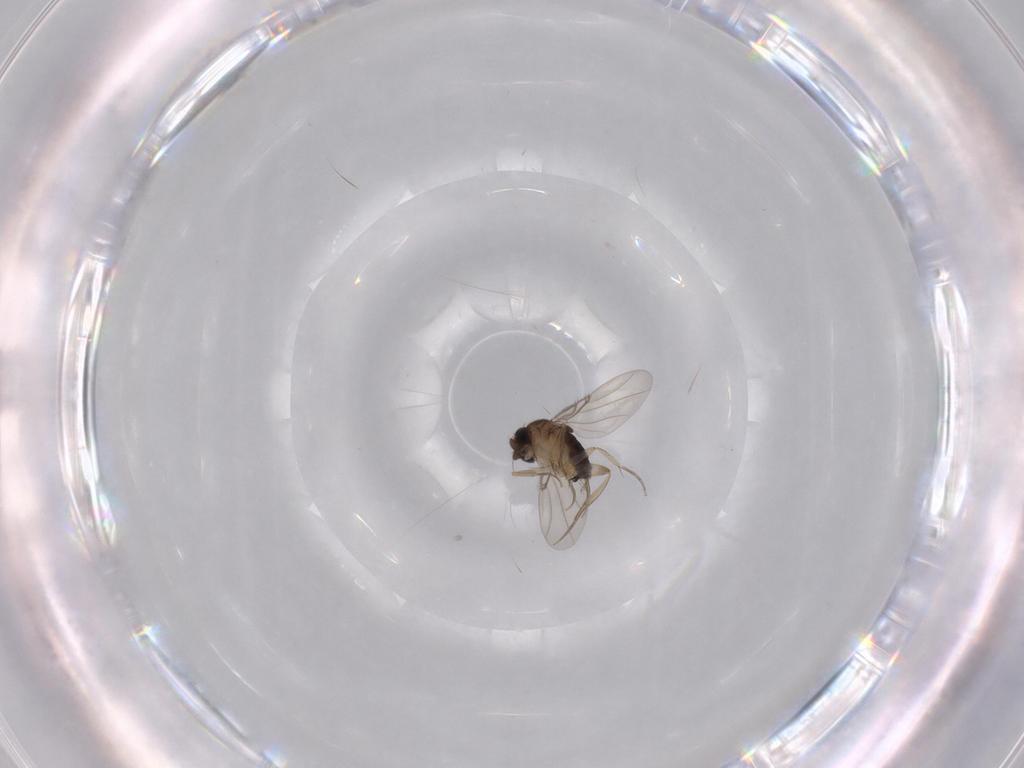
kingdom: Animalia
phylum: Arthropoda
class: Insecta
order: Diptera
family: Phoridae
